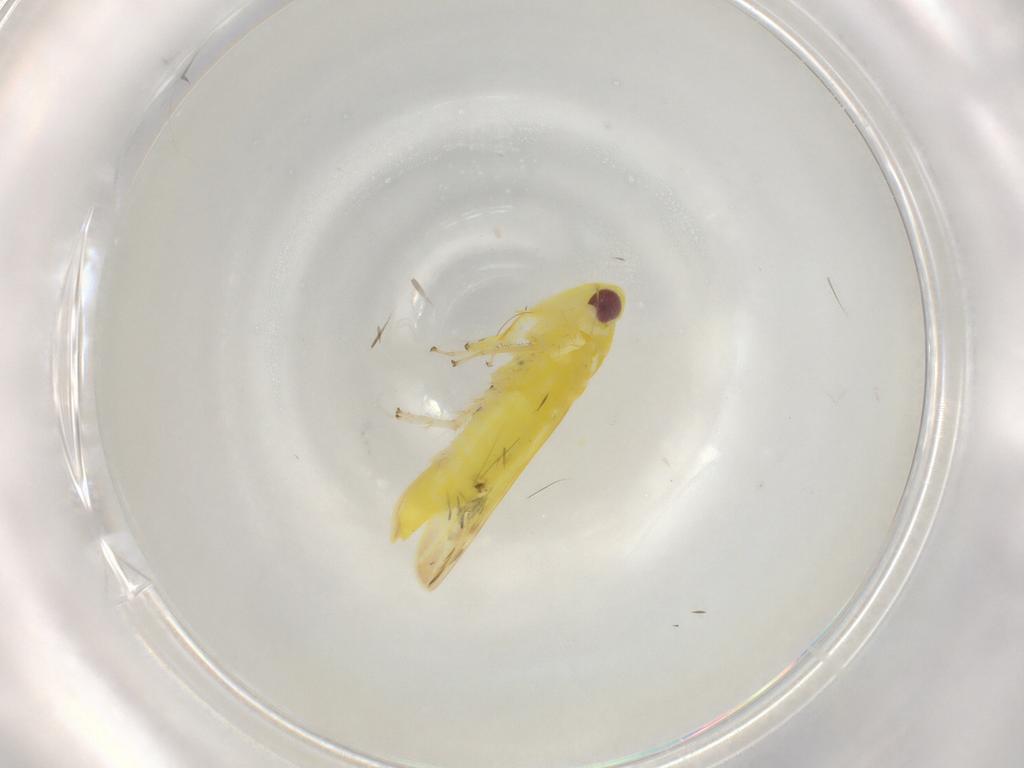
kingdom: Animalia
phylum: Arthropoda
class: Insecta
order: Hemiptera
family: Cicadellidae
